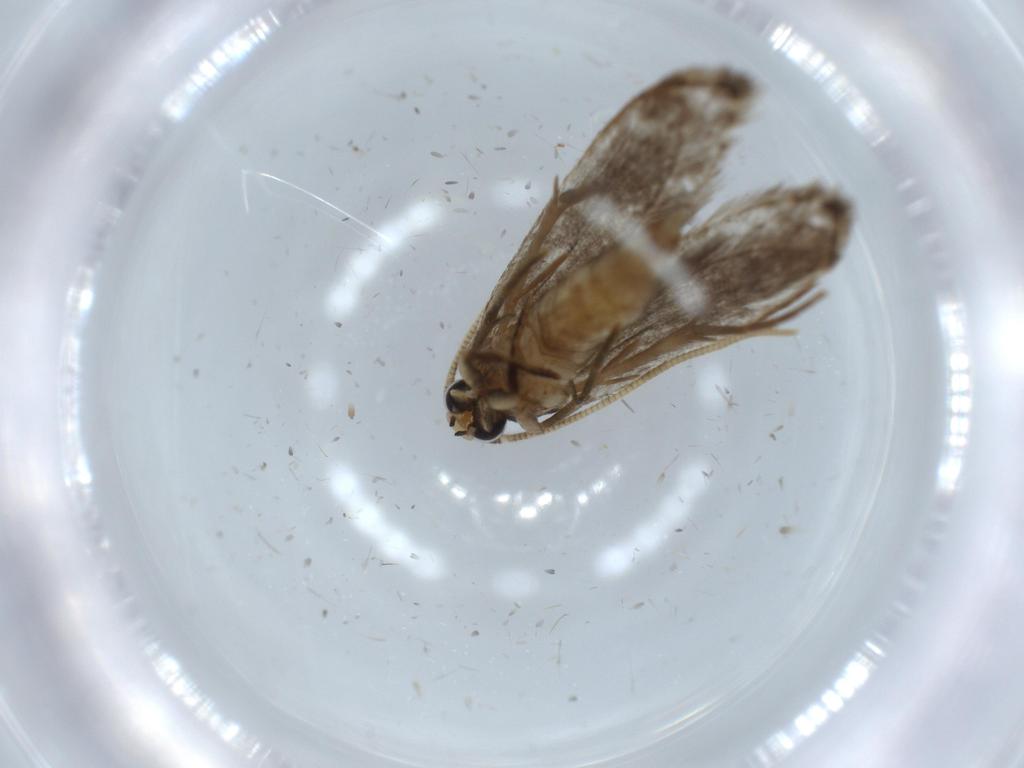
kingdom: Animalia
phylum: Arthropoda
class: Insecta
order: Lepidoptera
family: Tineidae
